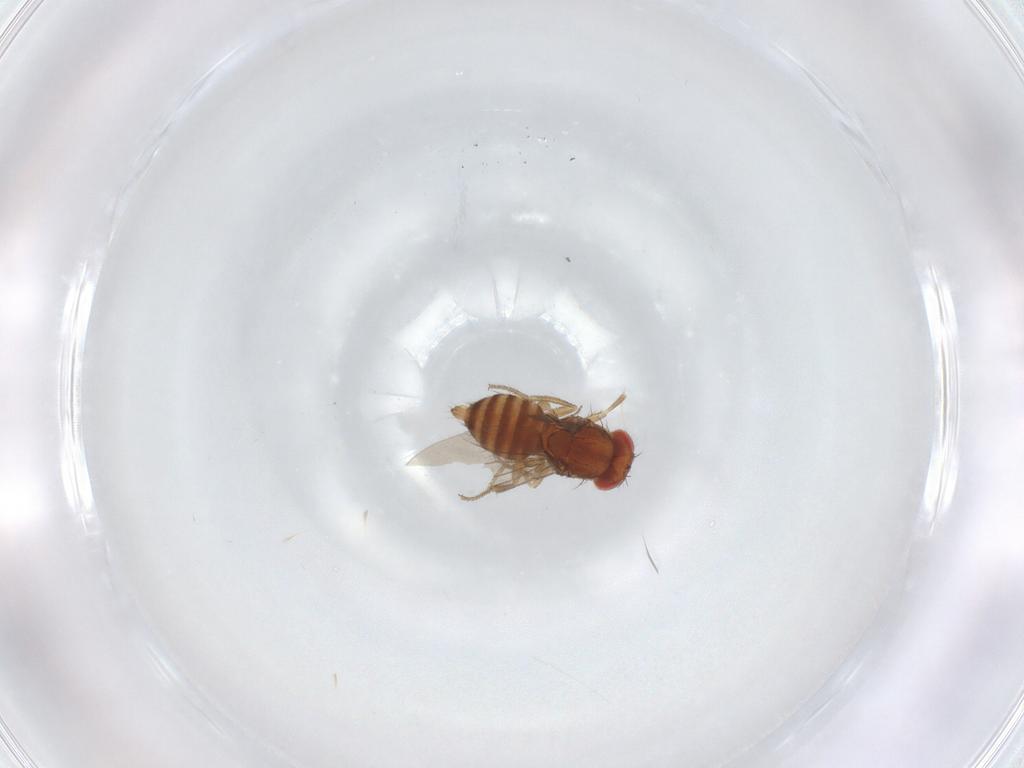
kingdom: Animalia
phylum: Arthropoda
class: Insecta
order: Diptera
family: Drosophilidae
